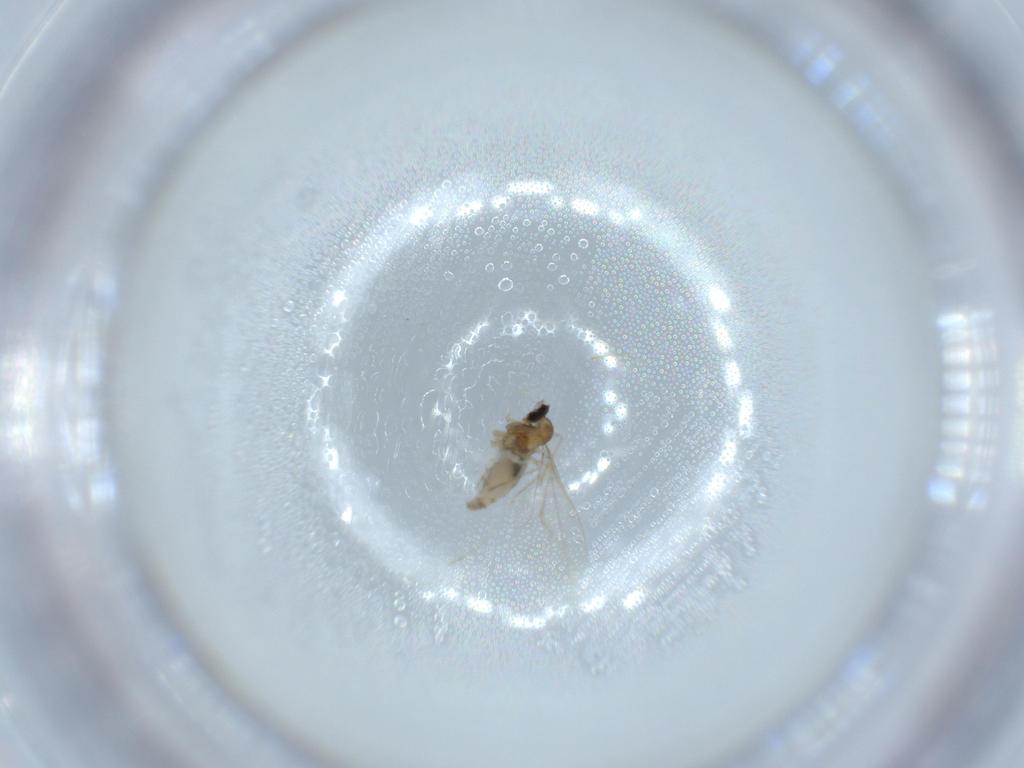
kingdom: Animalia
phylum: Arthropoda
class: Insecta
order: Diptera
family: Cecidomyiidae
